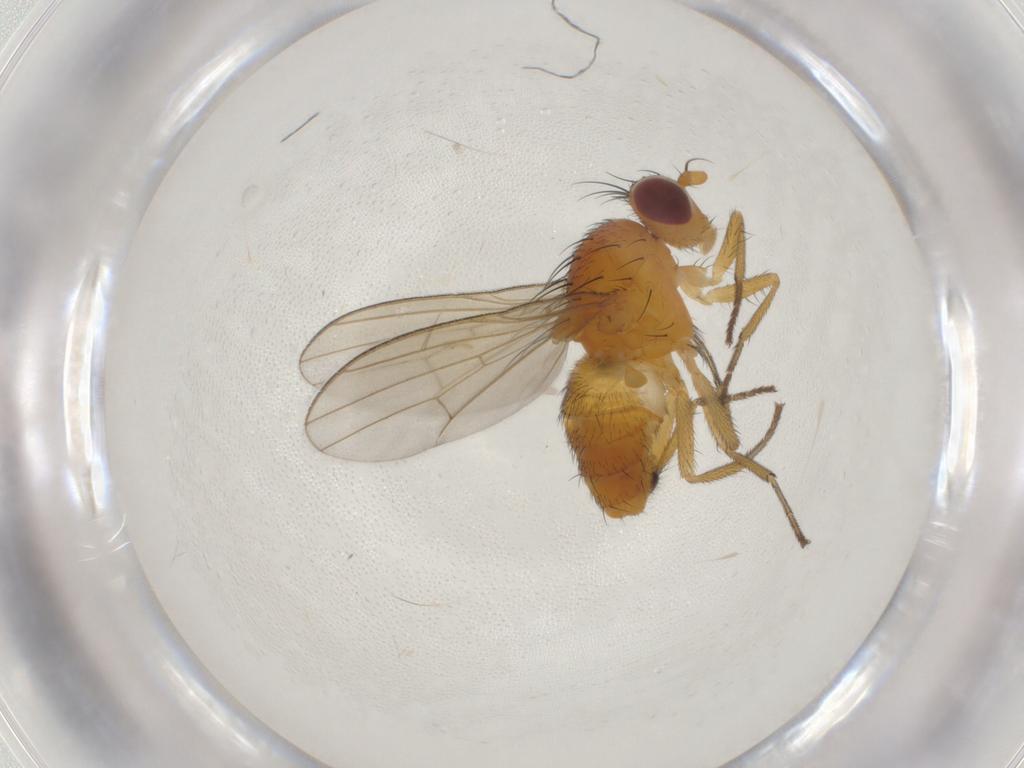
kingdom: Animalia
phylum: Arthropoda
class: Insecta
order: Diptera
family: Lauxaniidae
